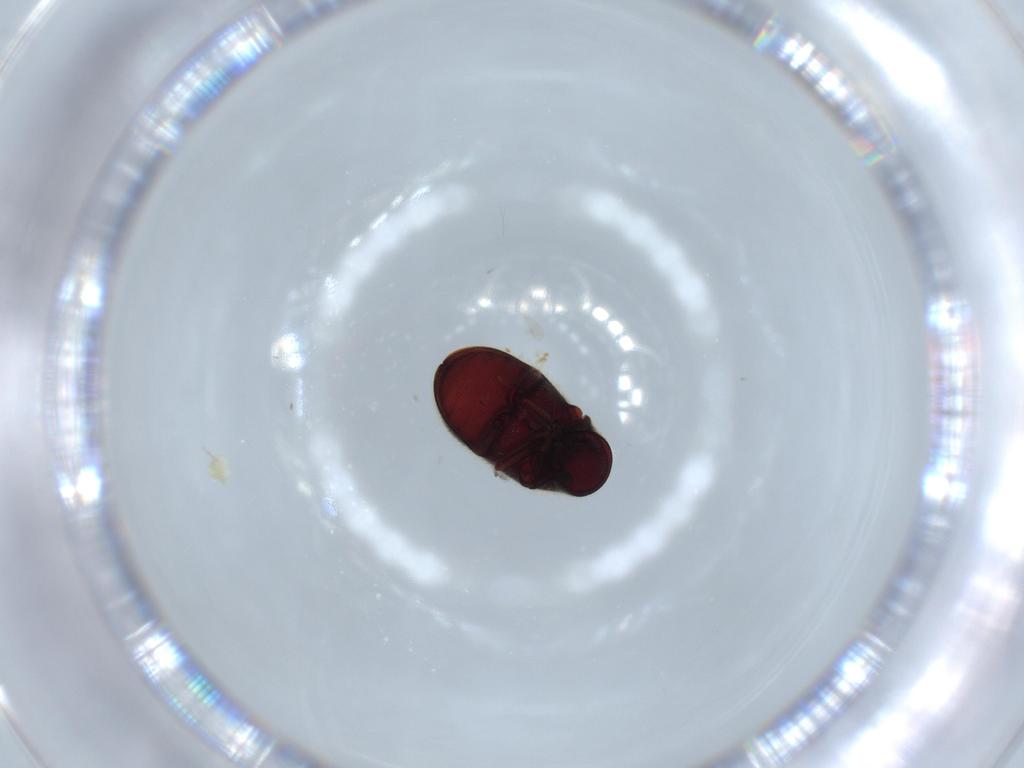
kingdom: Animalia
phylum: Arthropoda
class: Insecta
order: Coleoptera
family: Ptinidae
